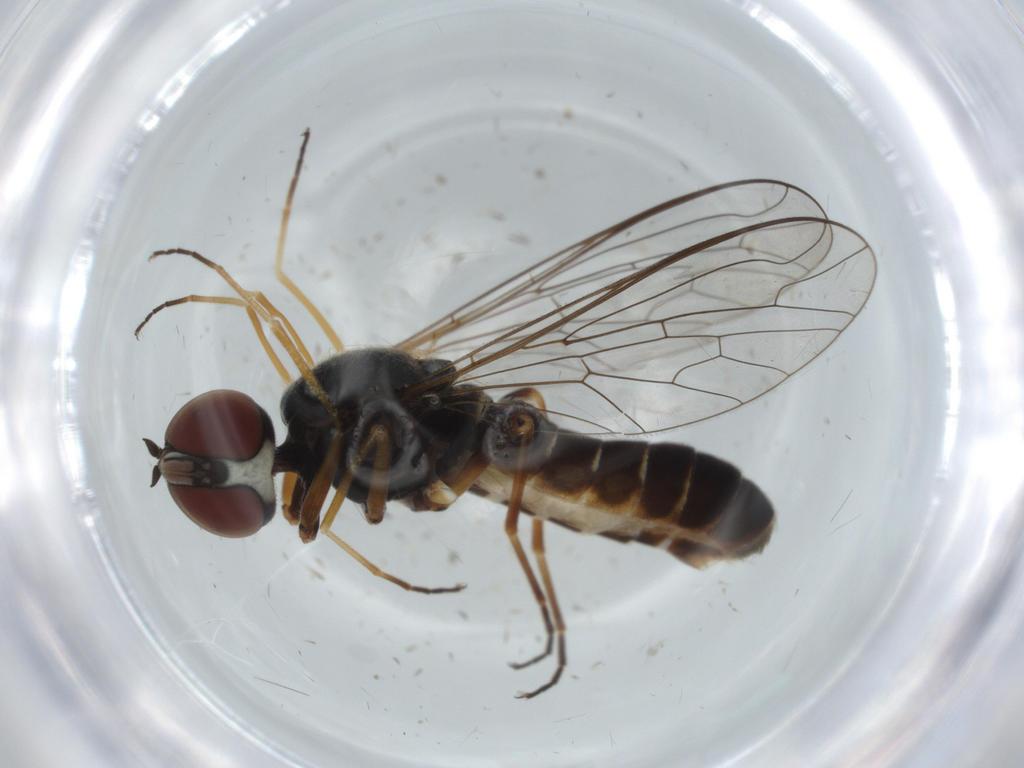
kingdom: Animalia
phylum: Arthropoda
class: Insecta
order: Diptera
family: Bombyliidae
